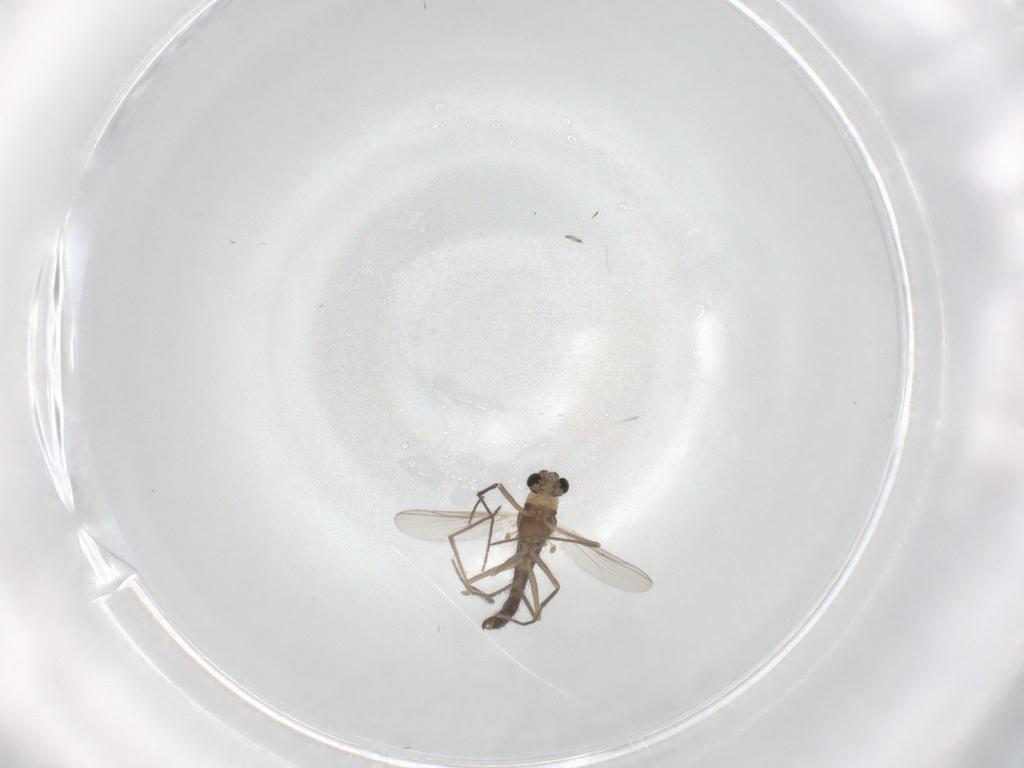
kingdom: Animalia
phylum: Arthropoda
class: Insecta
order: Diptera
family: Chironomidae
